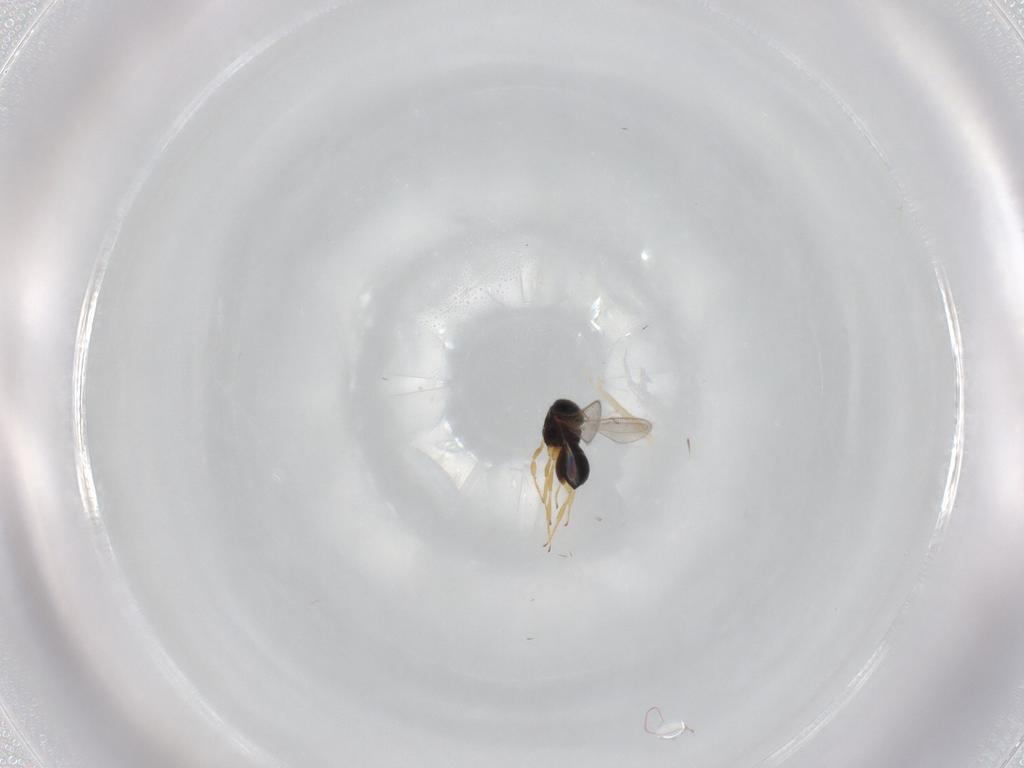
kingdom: Animalia
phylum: Arthropoda
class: Insecta
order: Hymenoptera
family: Scelionidae
